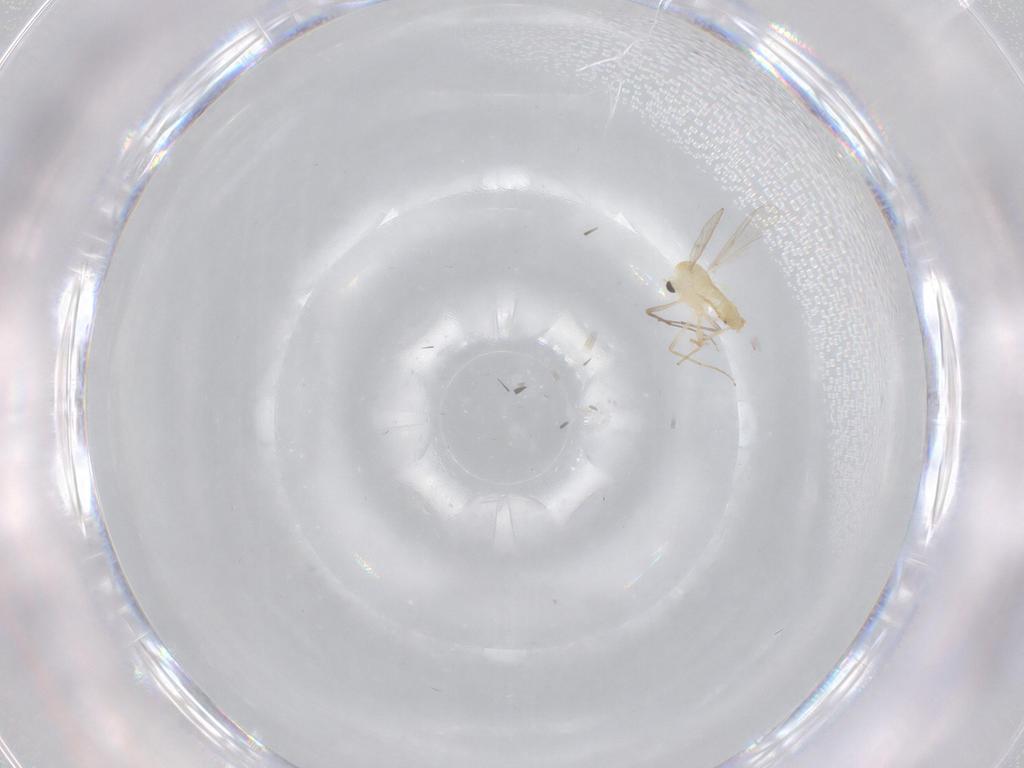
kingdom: Animalia
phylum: Arthropoda
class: Insecta
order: Diptera
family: Chironomidae
